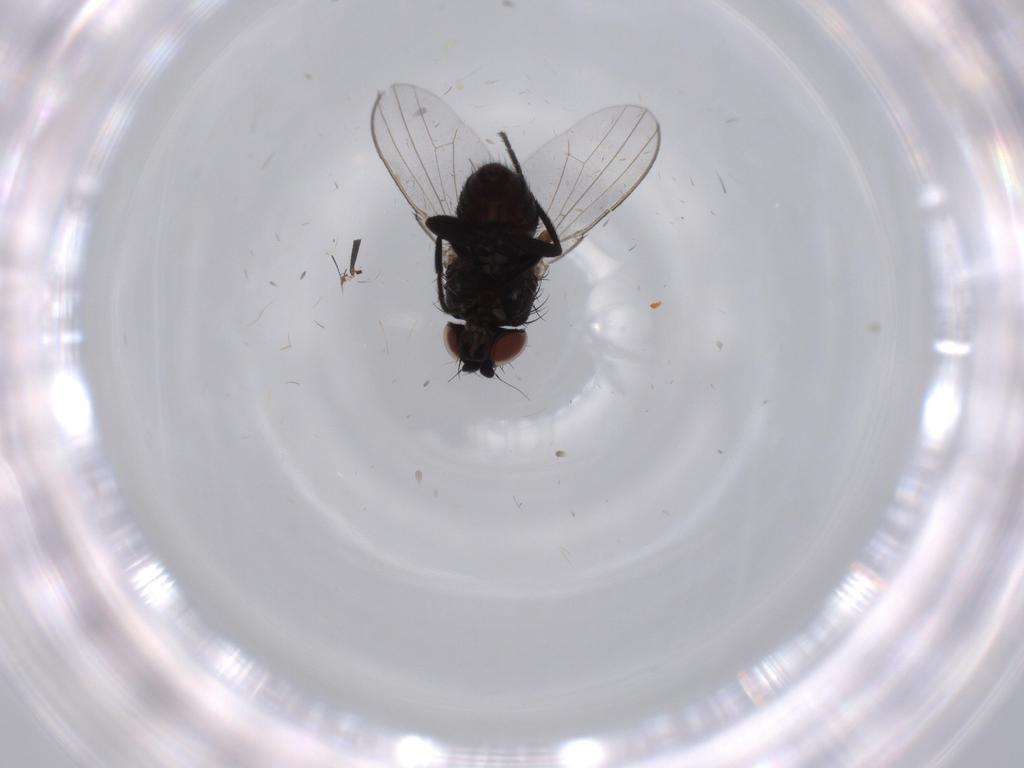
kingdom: Animalia
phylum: Arthropoda
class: Insecta
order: Diptera
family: Milichiidae
